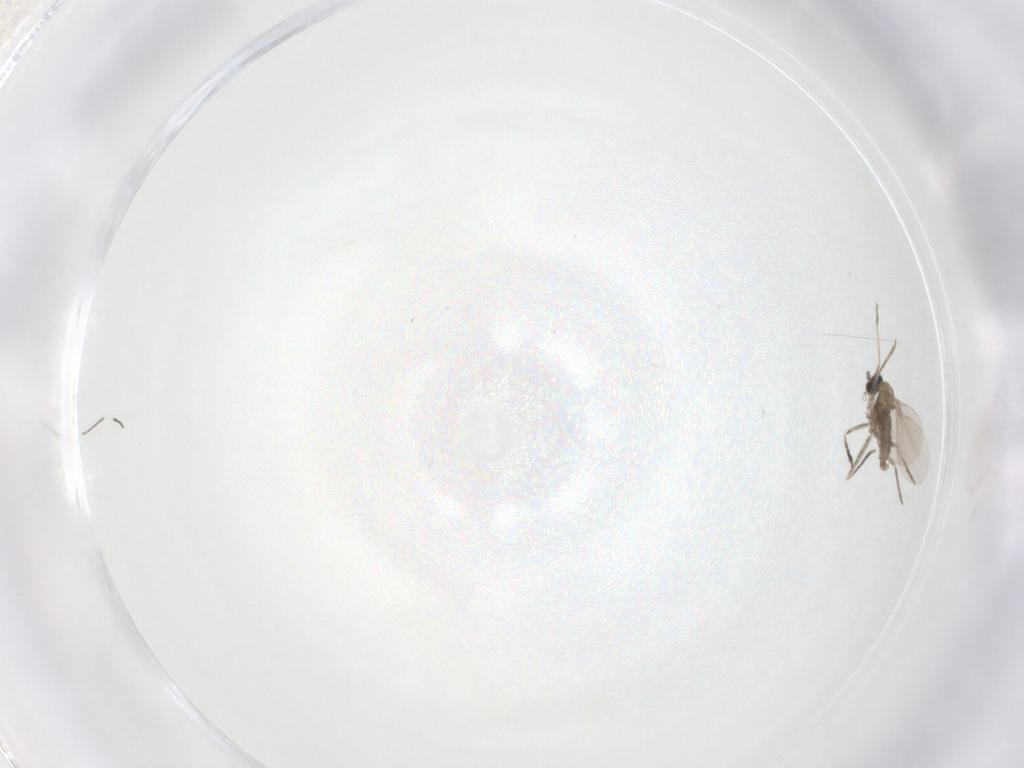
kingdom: Animalia
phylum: Arthropoda
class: Insecta
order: Diptera
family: Cecidomyiidae
